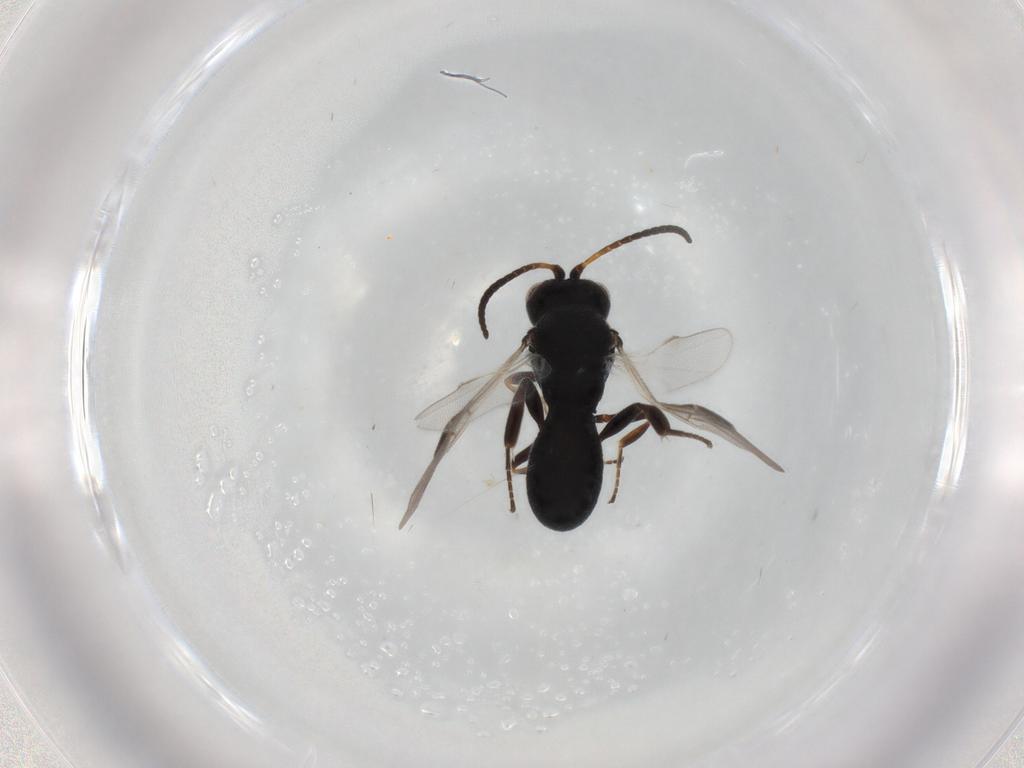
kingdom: Animalia
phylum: Arthropoda
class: Insecta
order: Hymenoptera
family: Braconidae
